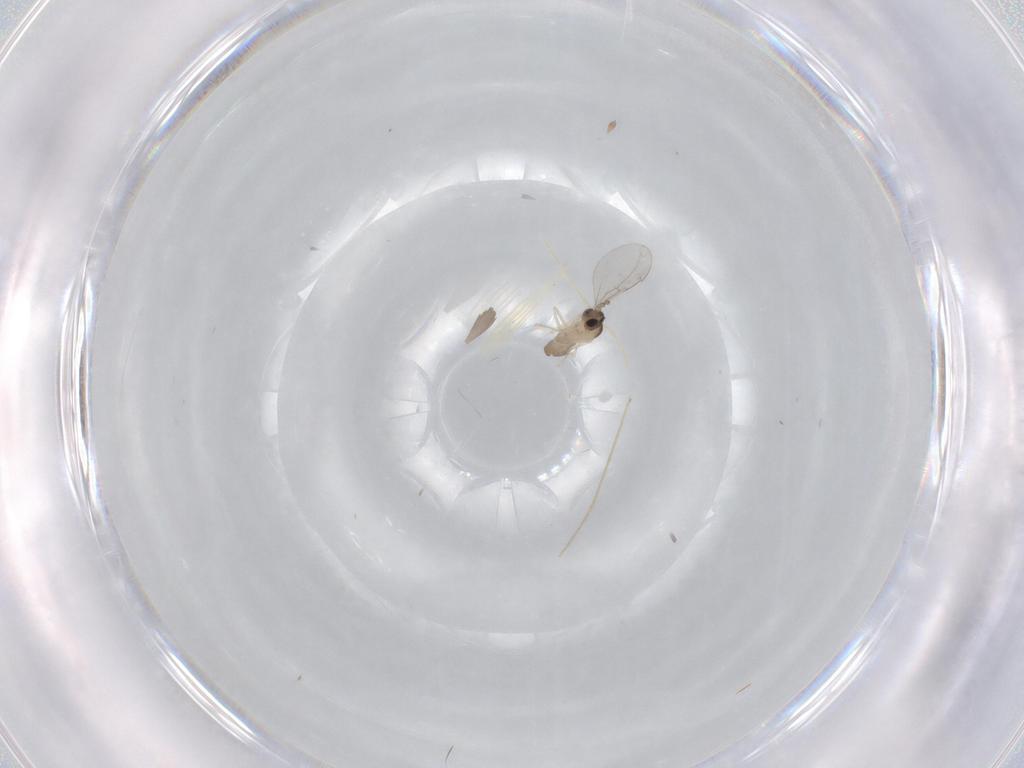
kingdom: Animalia
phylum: Arthropoda
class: Insecta
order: Diptera
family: Cecidomyiidae
